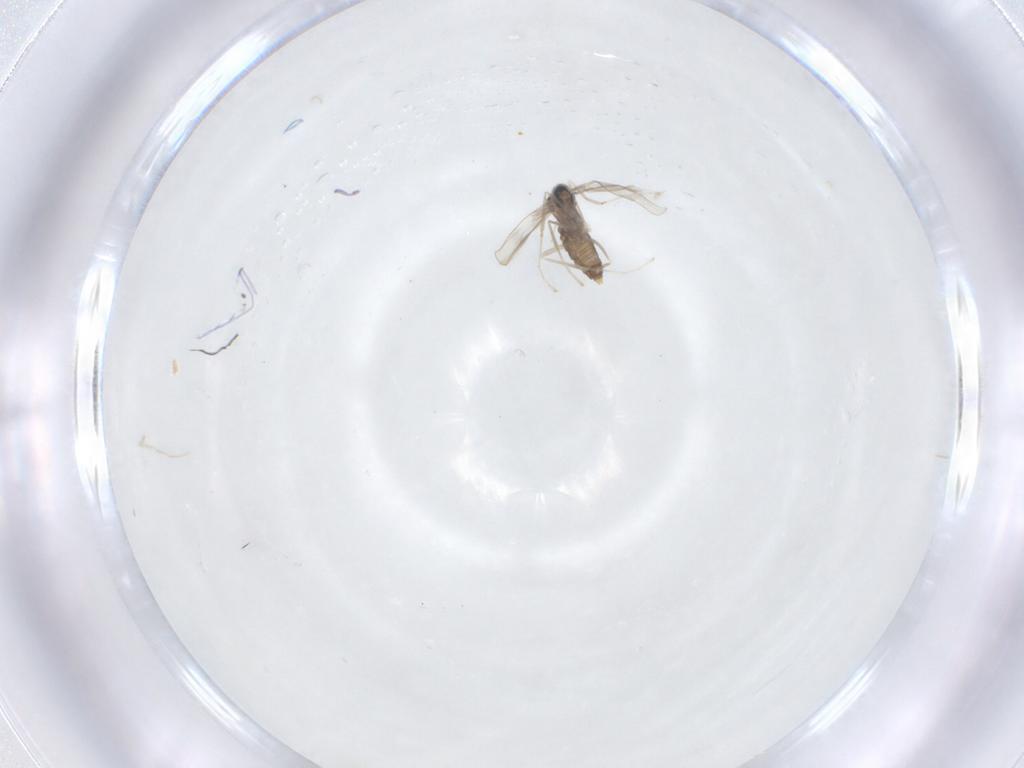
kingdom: Animalia
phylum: Arthropoda
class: Insecta
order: Diptera
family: Cecidomyiidae
